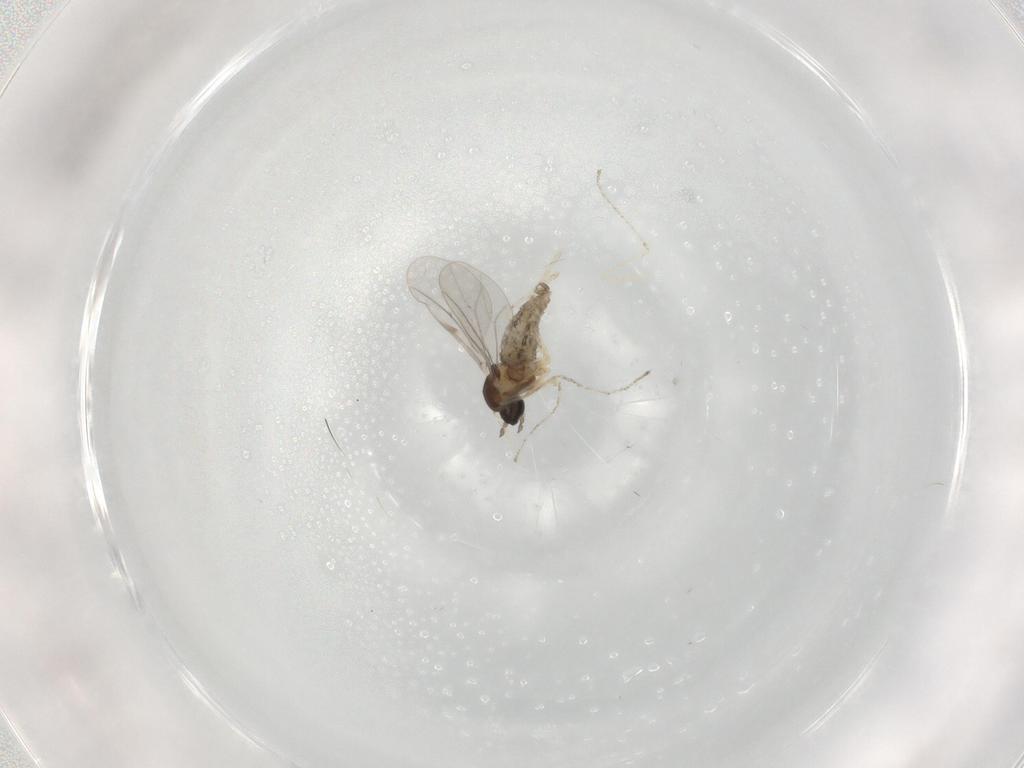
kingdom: Animalia
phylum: Arthropoda
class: Insecta
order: Diptera
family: Cecidomyiidae
